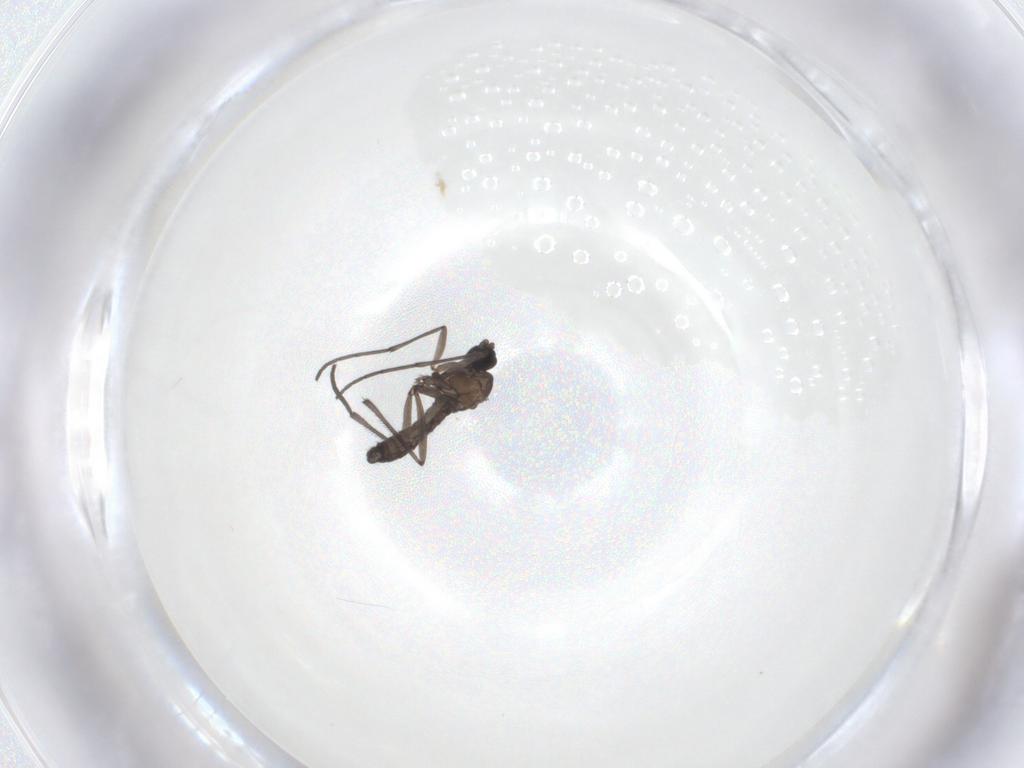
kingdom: Animalia
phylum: Arthropoda
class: Insecta
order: Diptera
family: Sciaridae
